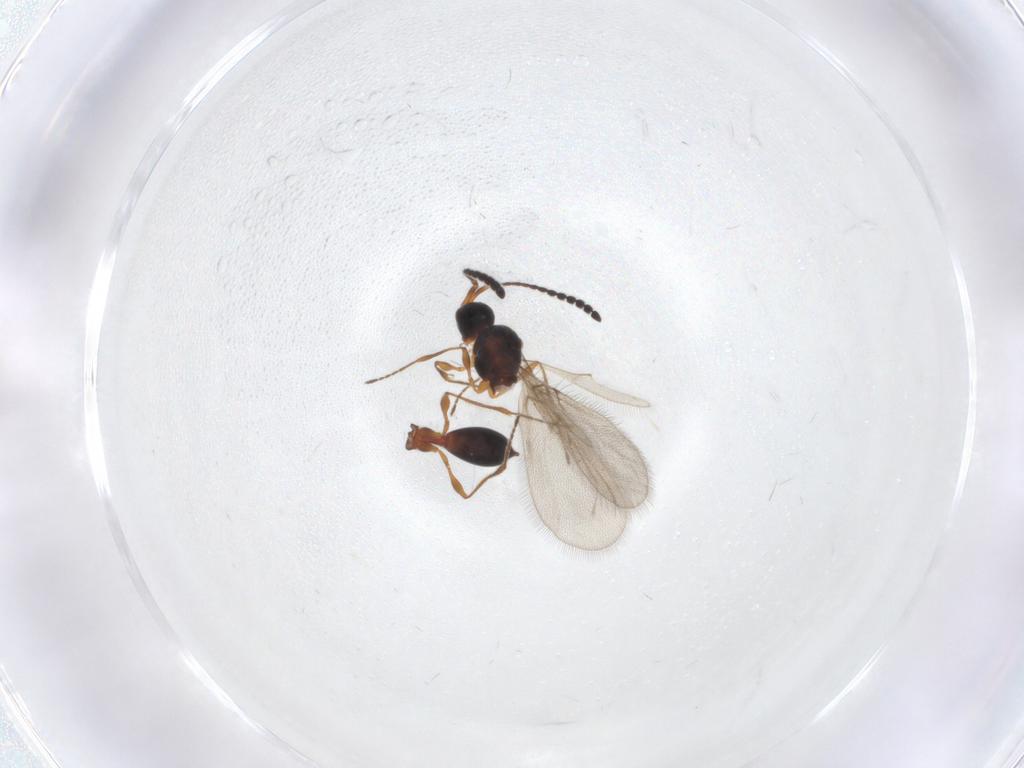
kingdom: Animalia
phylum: Arthropoda
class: Insecta
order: Hymenoptera
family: Diapriidae
